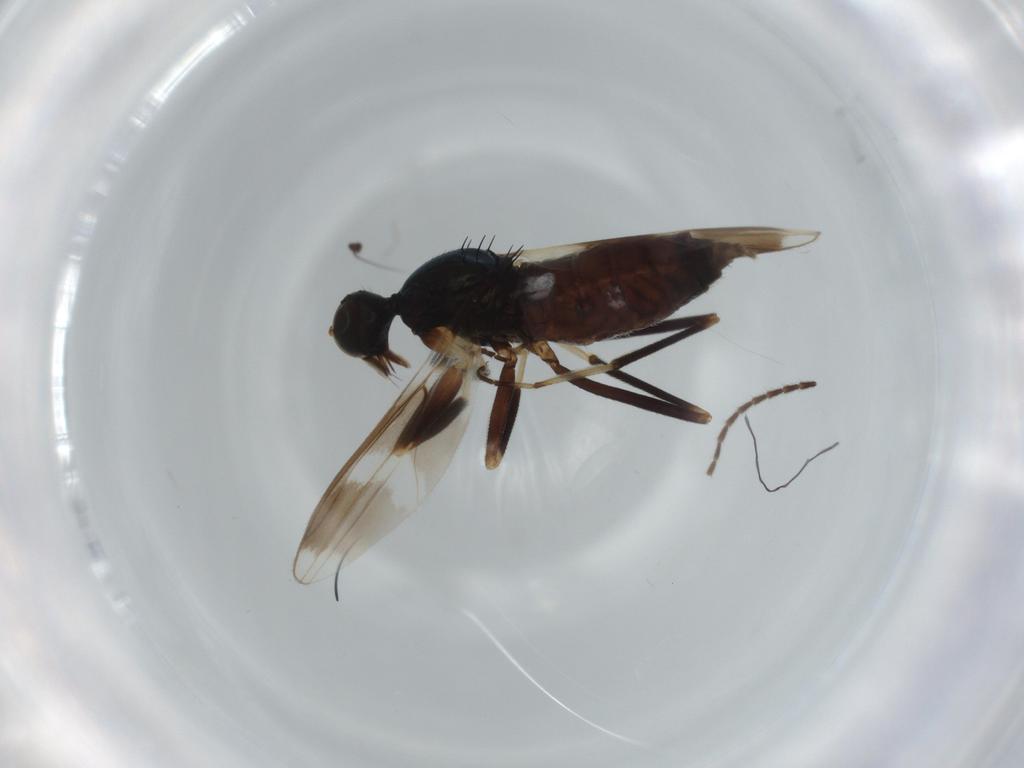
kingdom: Animalia
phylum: Arthropoda
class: Insecta
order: Diptera
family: Hybotidae
